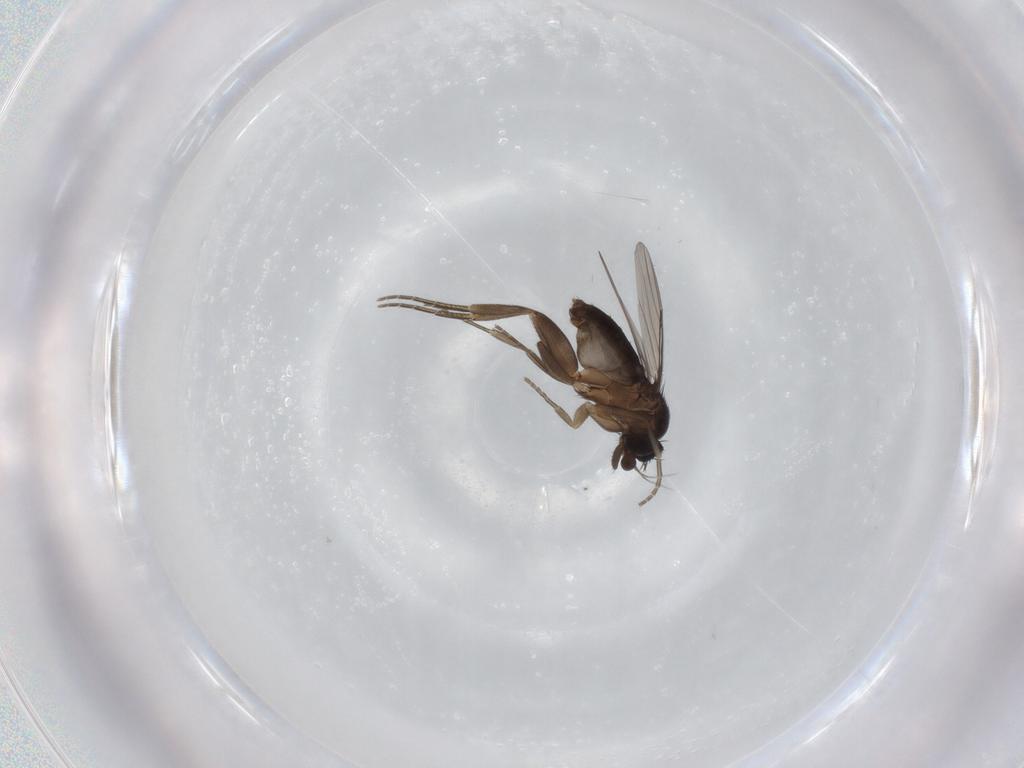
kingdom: Animalia
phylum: Arthropoda
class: Insecta
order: Diptera
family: Phoridae
